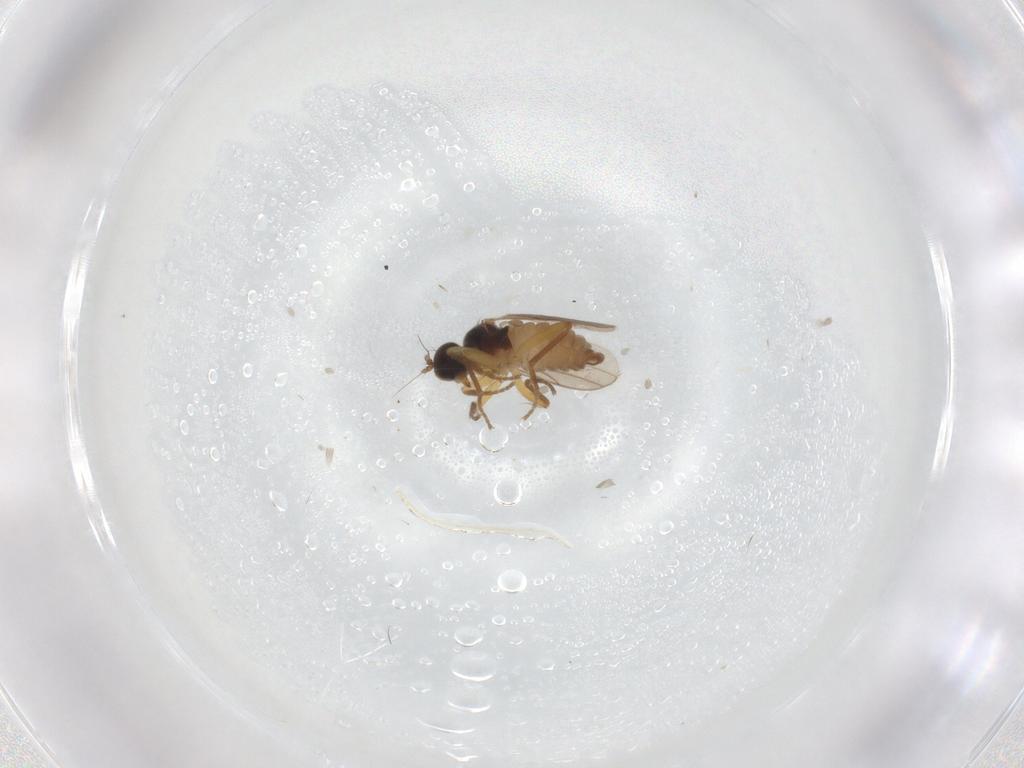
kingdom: Animalia
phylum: Arthropoda
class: Insecta
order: Diptera
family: Hybotidae
